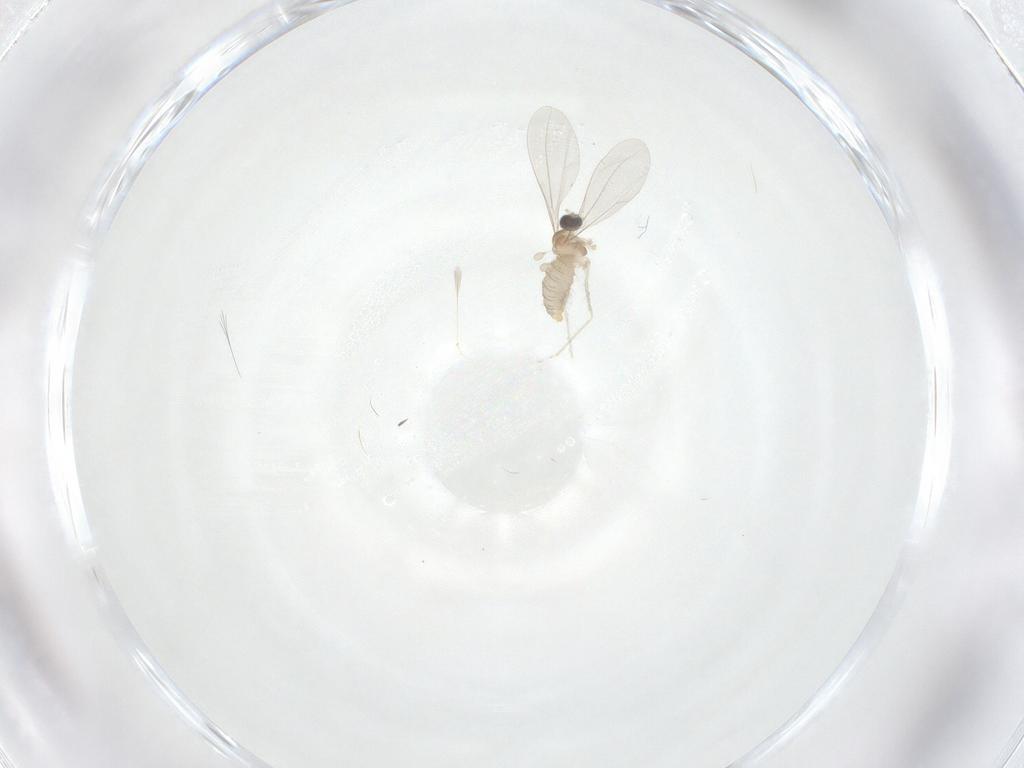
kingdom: Animalia
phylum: Arthropoda
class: Insecta
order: Diptera
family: Cecidomyiidae
